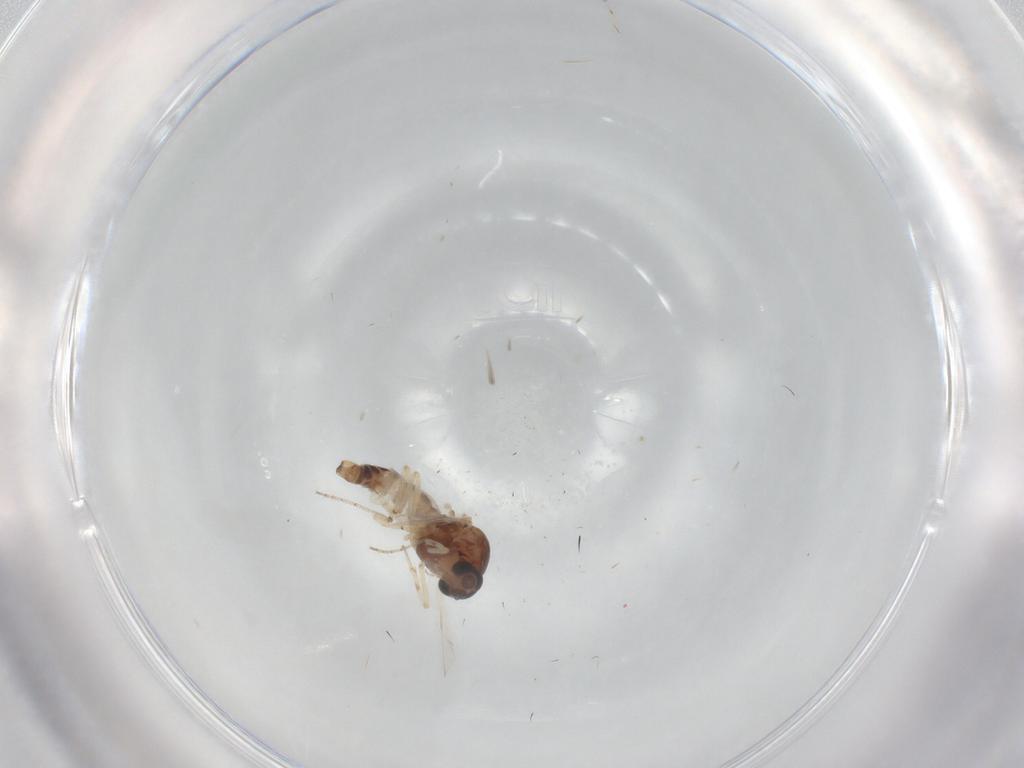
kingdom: Animalia
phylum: Arthropoda
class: Insecta
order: Diptera
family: Ceratopogonidae
